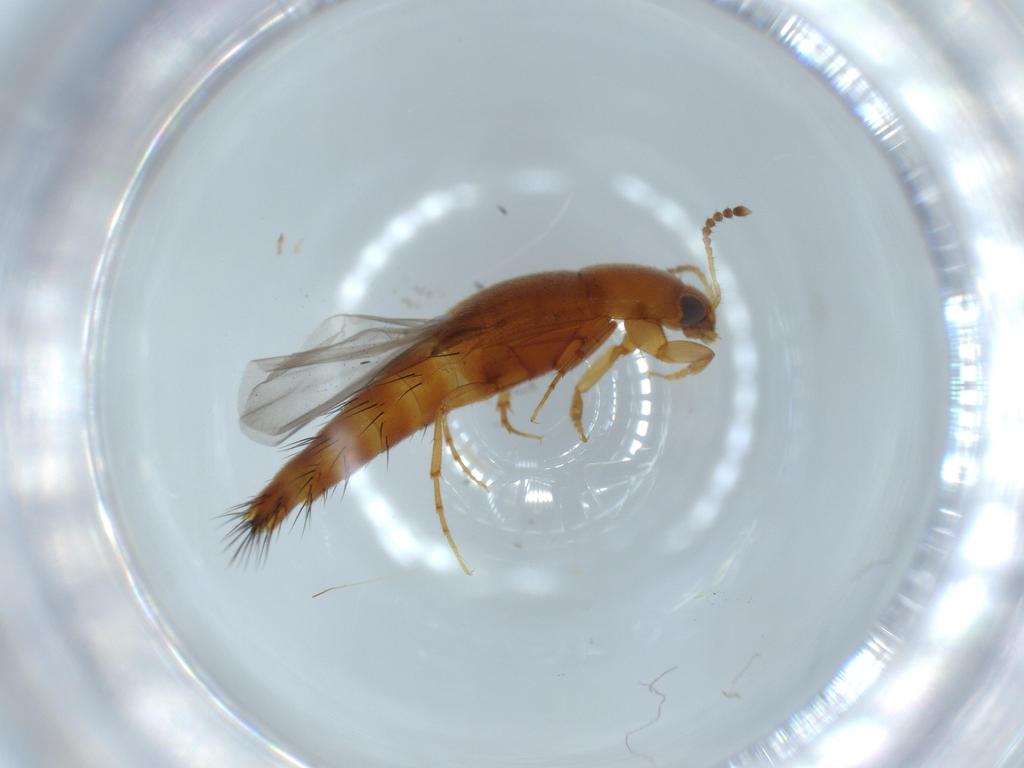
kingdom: Animalia
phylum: Arthropoda
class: Insecta
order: Coleoptera
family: Staphylinidae
